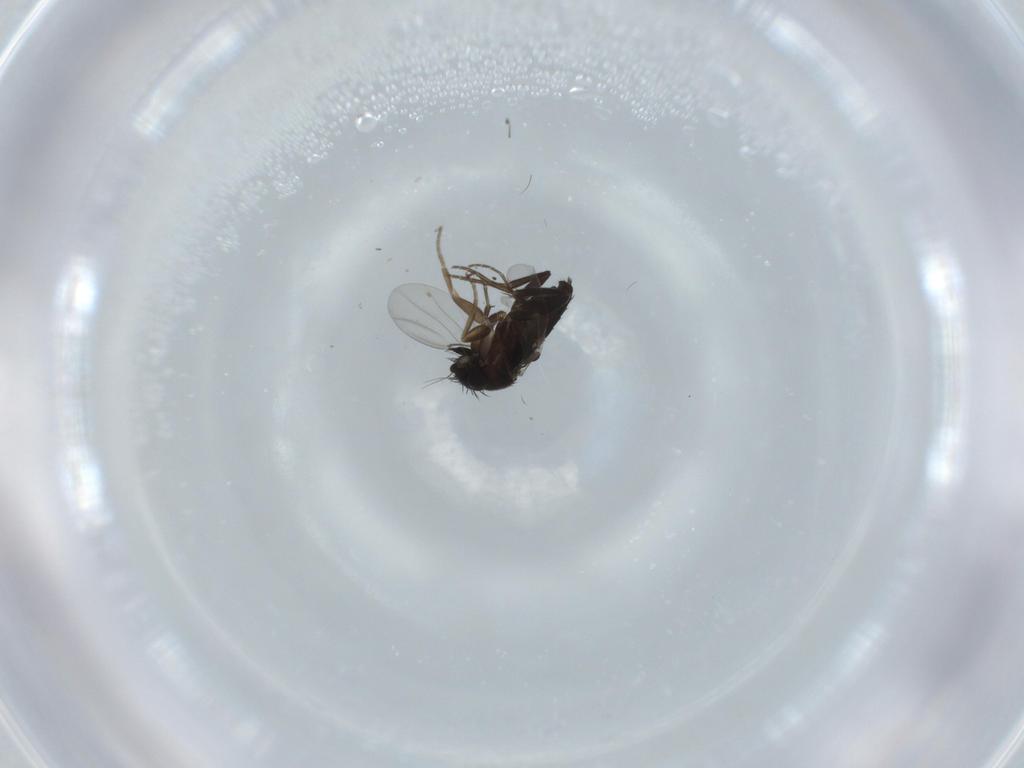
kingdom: Animalia
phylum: Arthropoda
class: Insecta
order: Diptera
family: Phoridae
